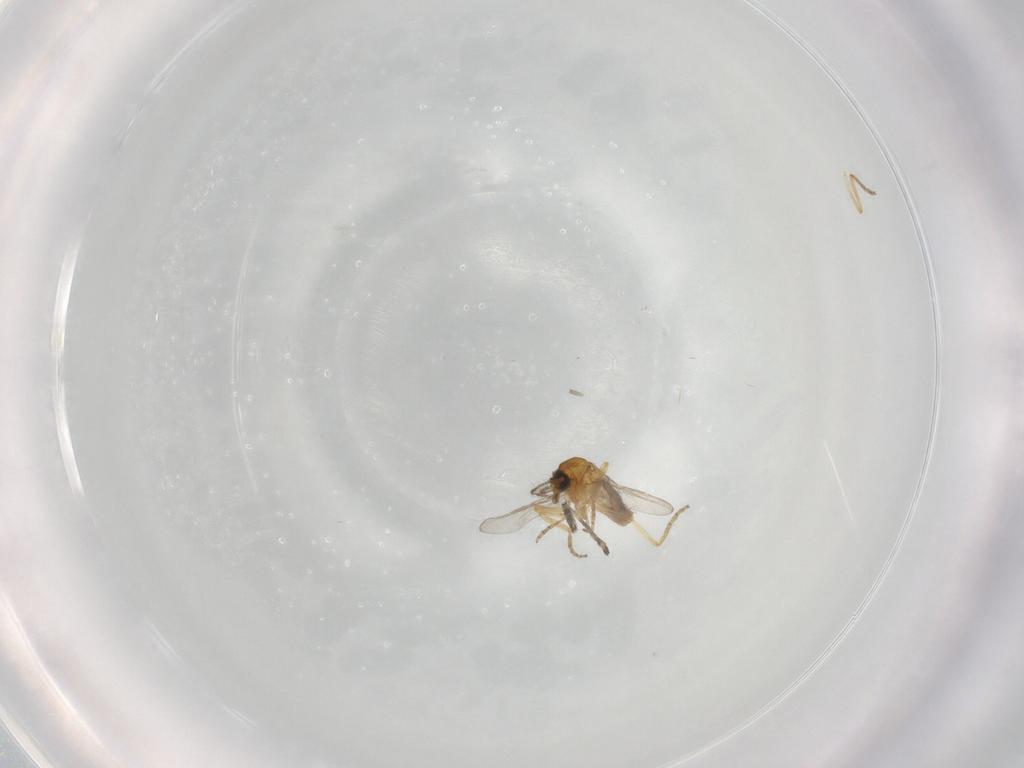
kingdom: Animalia
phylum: Arthropoda
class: Insecta
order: Diptera
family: Ceratopogonidae
